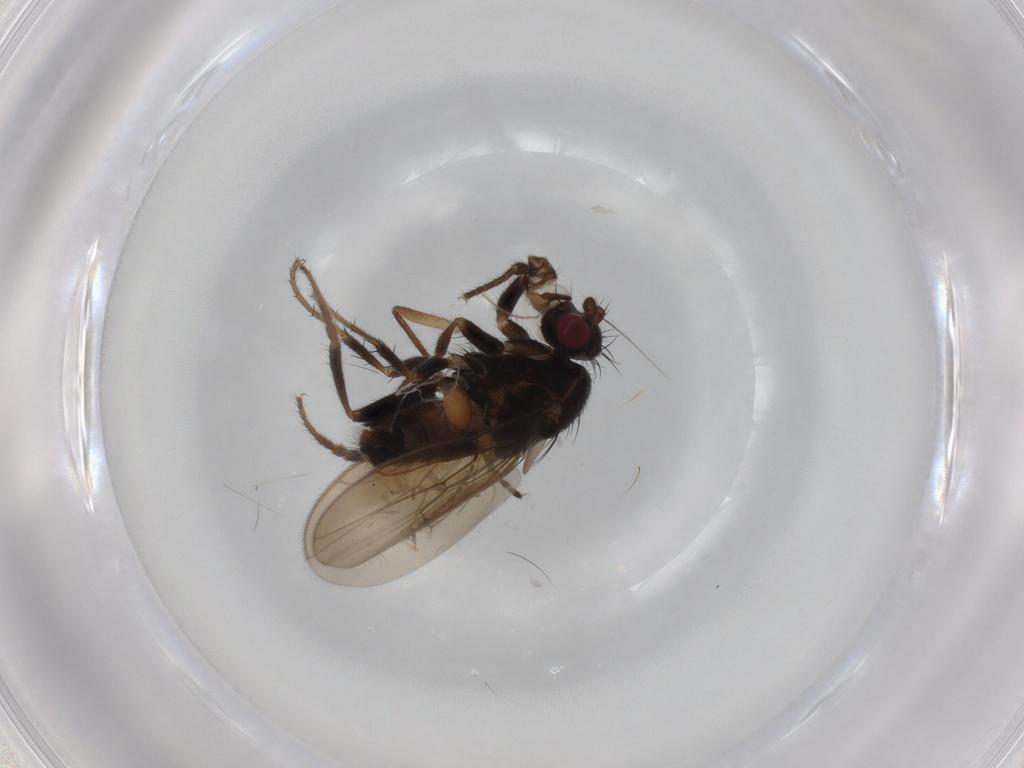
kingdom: Animalia
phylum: Arthropoda
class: Insecta
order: Diptera
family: Sphaeroceridae
